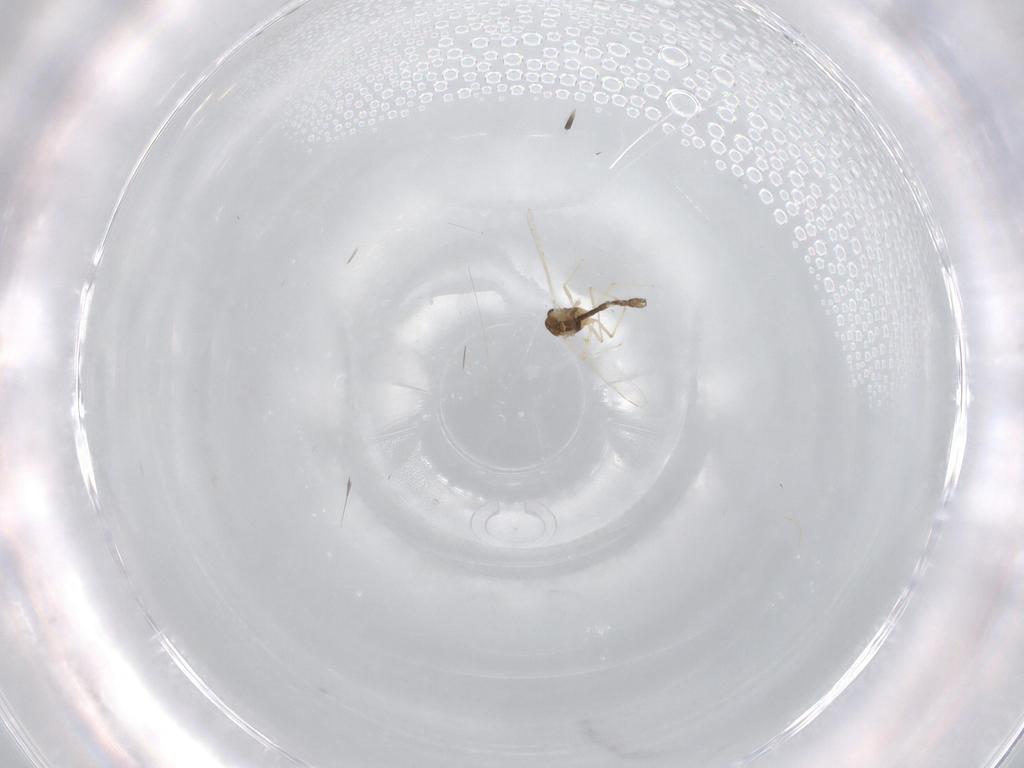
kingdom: Animalia
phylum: Arthropoda
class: Insecta
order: Diptera
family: Chironomidae
